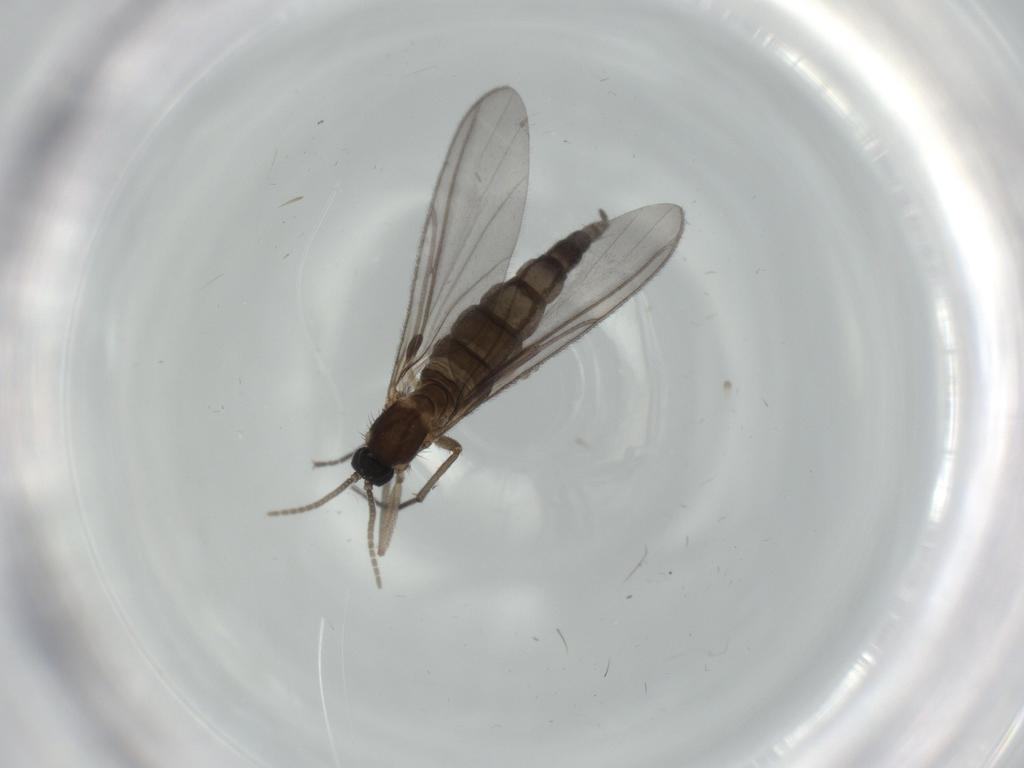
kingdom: Animalia
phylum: Arthropoda
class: Insecta
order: Diptera
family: Sciaridae
